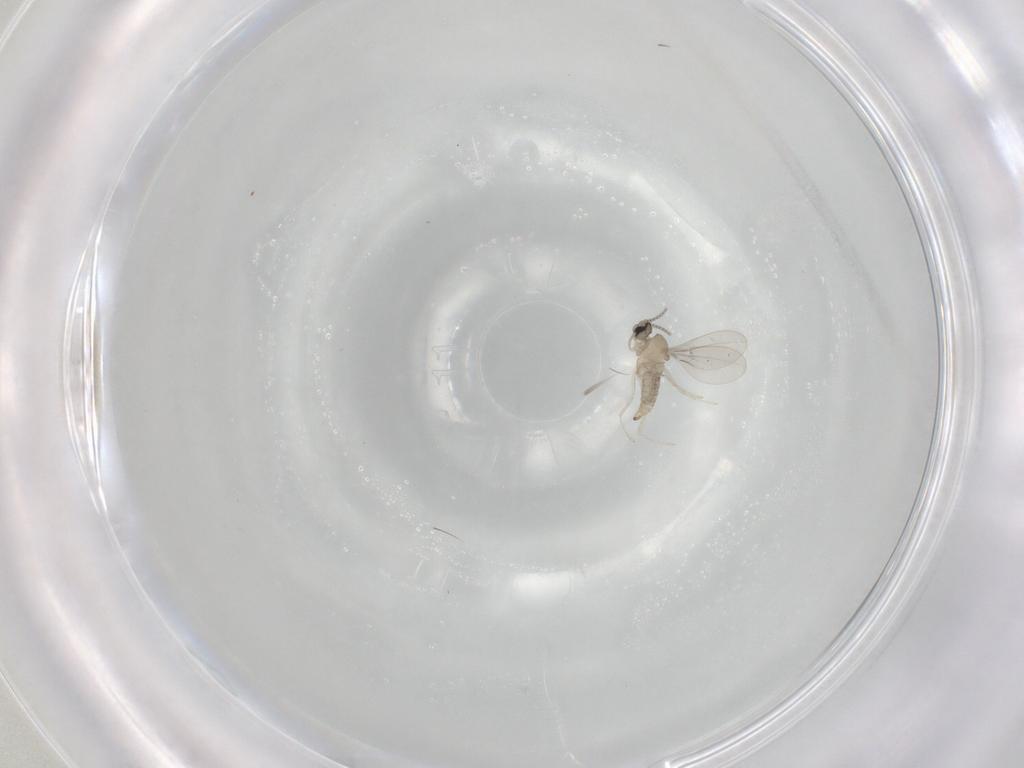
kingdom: Animalia
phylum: Arthropoda
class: Insecta
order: Diptera
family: Cecidomyiidae
